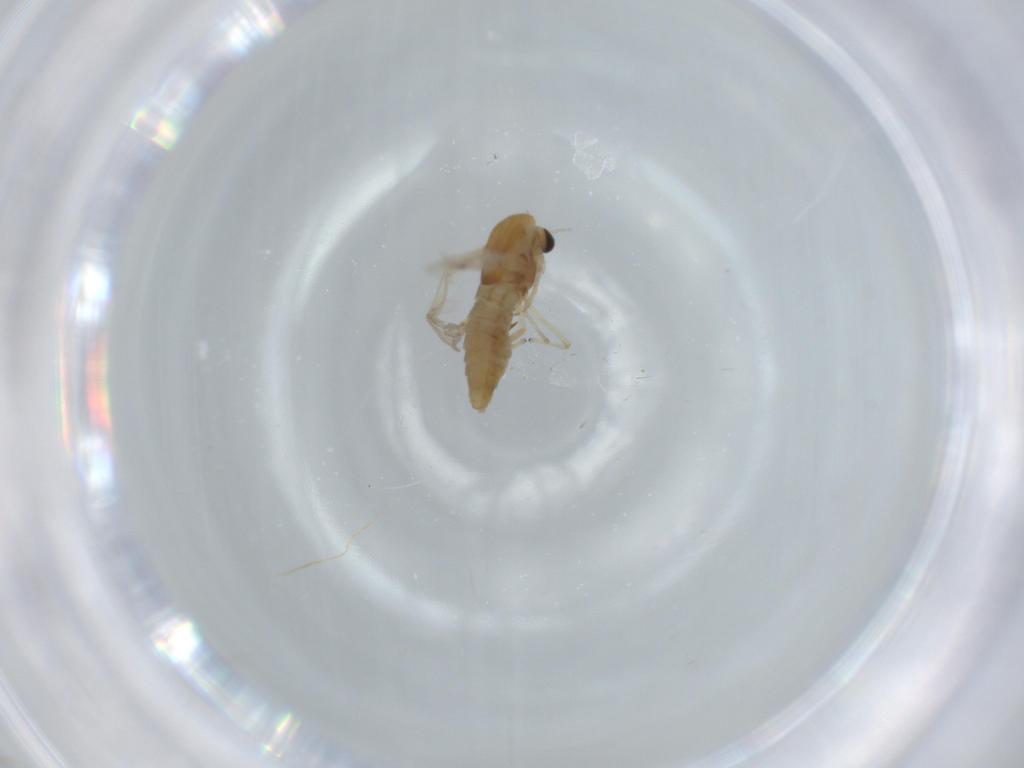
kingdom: Animalia
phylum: Arthropoda
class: Insecta
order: Diptera
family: Chironomidae
